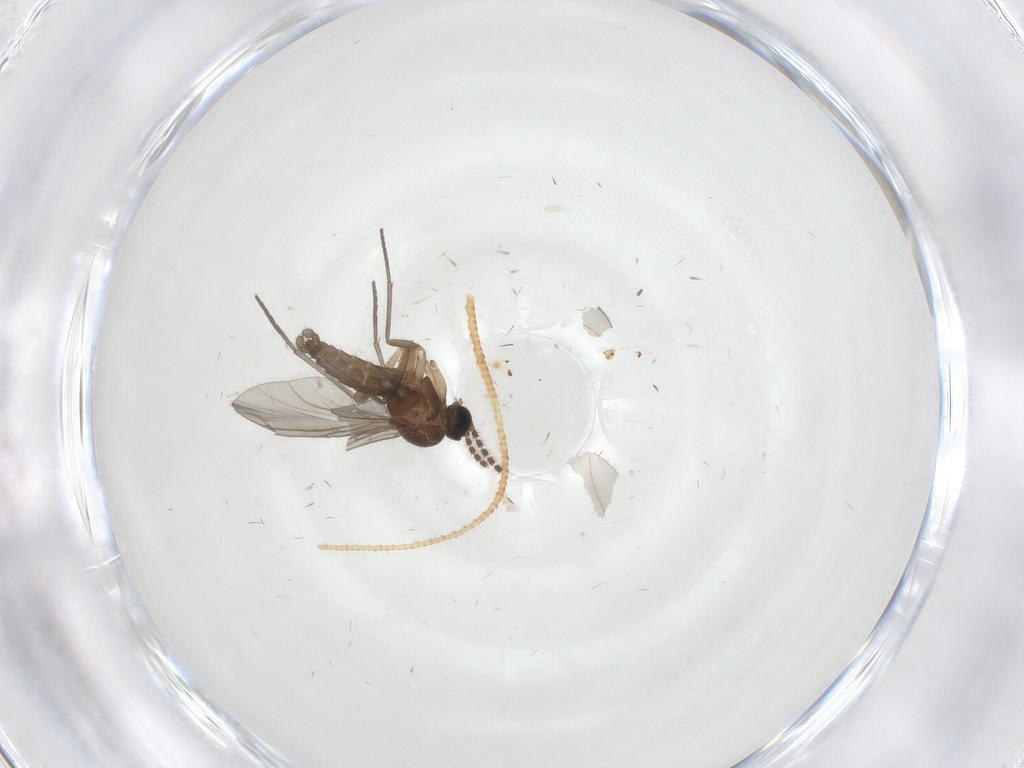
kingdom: Animalia
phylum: Arthropoda
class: Insecta
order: Diptera
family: Sciaridae
